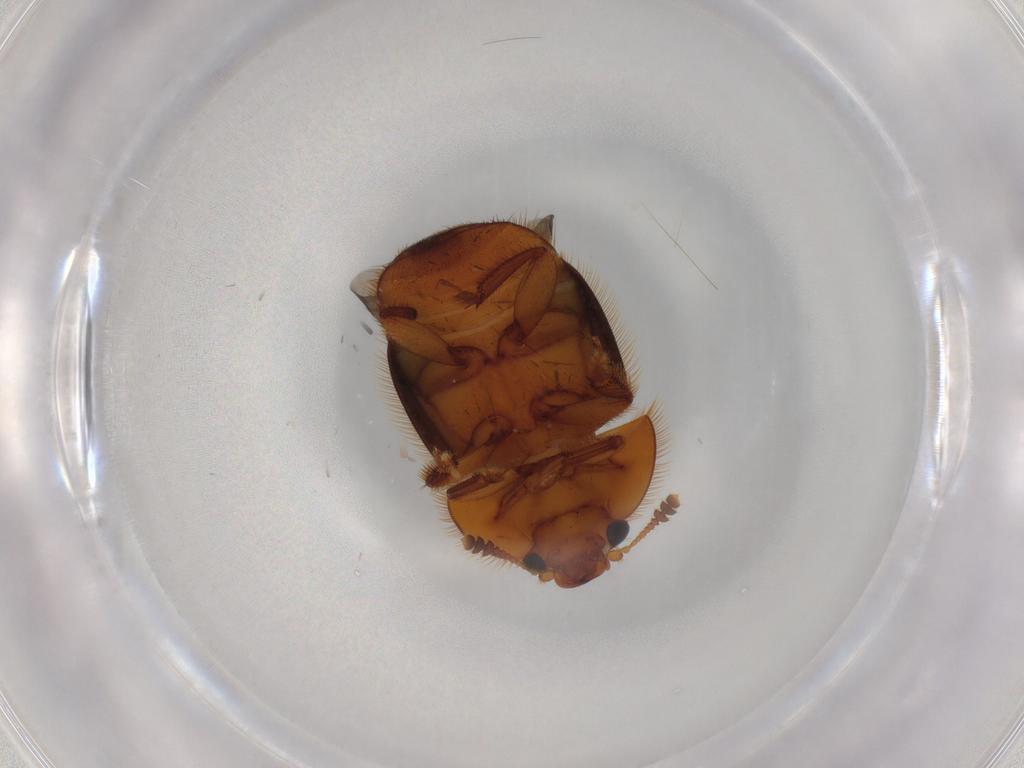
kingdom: Animalia
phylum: Arthropoda
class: Insecta
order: Coleoptera
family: Nitidulidae
